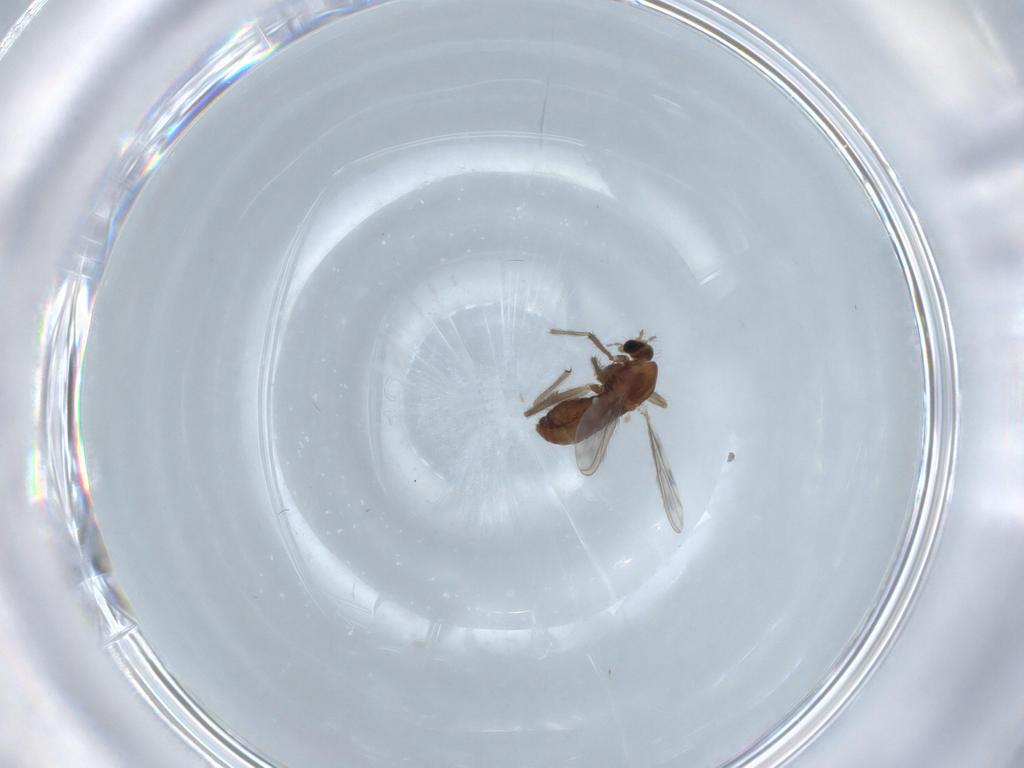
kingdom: Animalia
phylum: Arthropoda
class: Insecta
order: Diptera
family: Chironomidae
